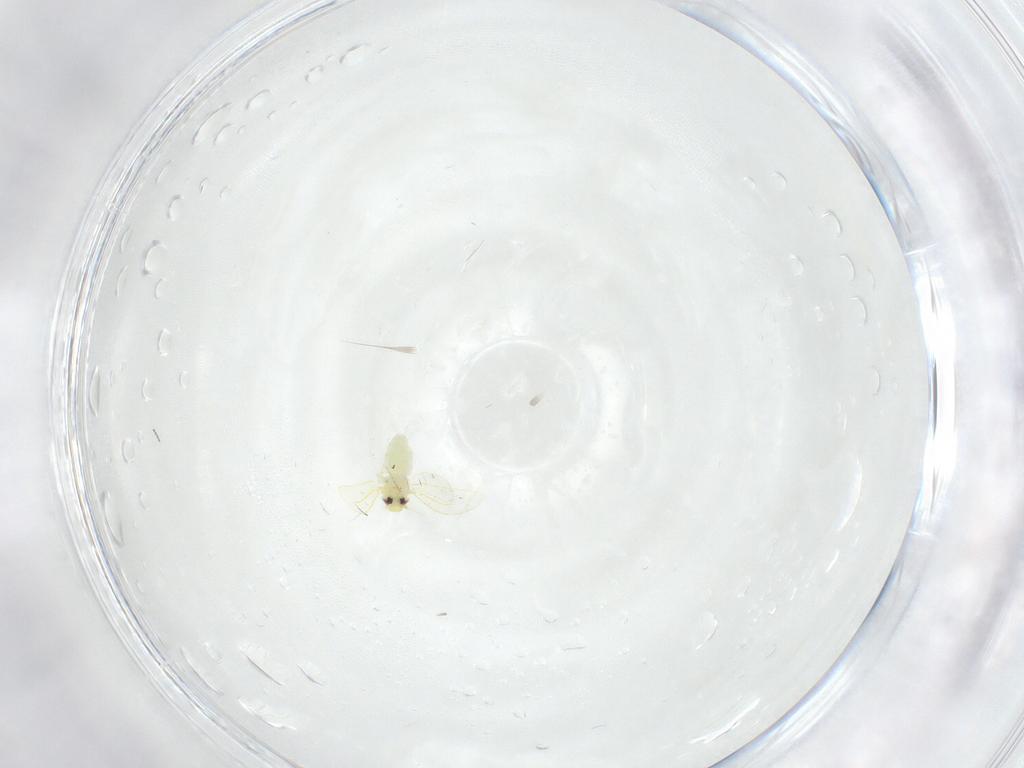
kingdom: Animalia
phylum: Arthropoda
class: Insecta
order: Hemiptera
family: Aleyrodidae
